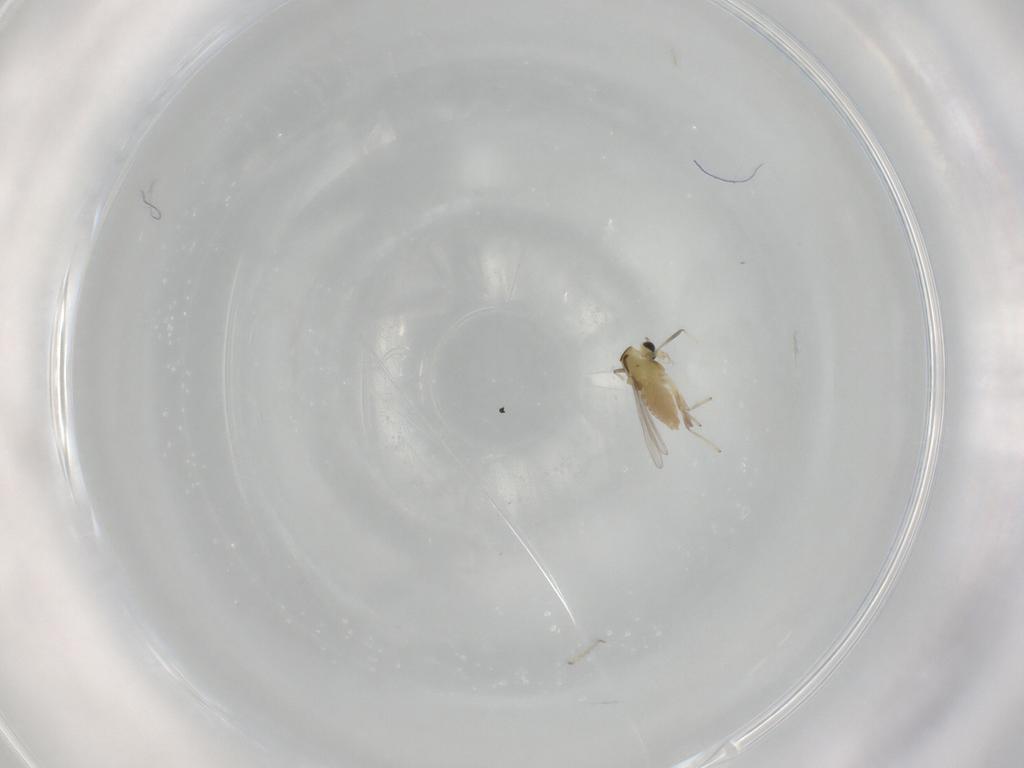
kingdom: Animalia
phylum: Arthropoda
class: Insecta
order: Diptera
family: Chironomidae
